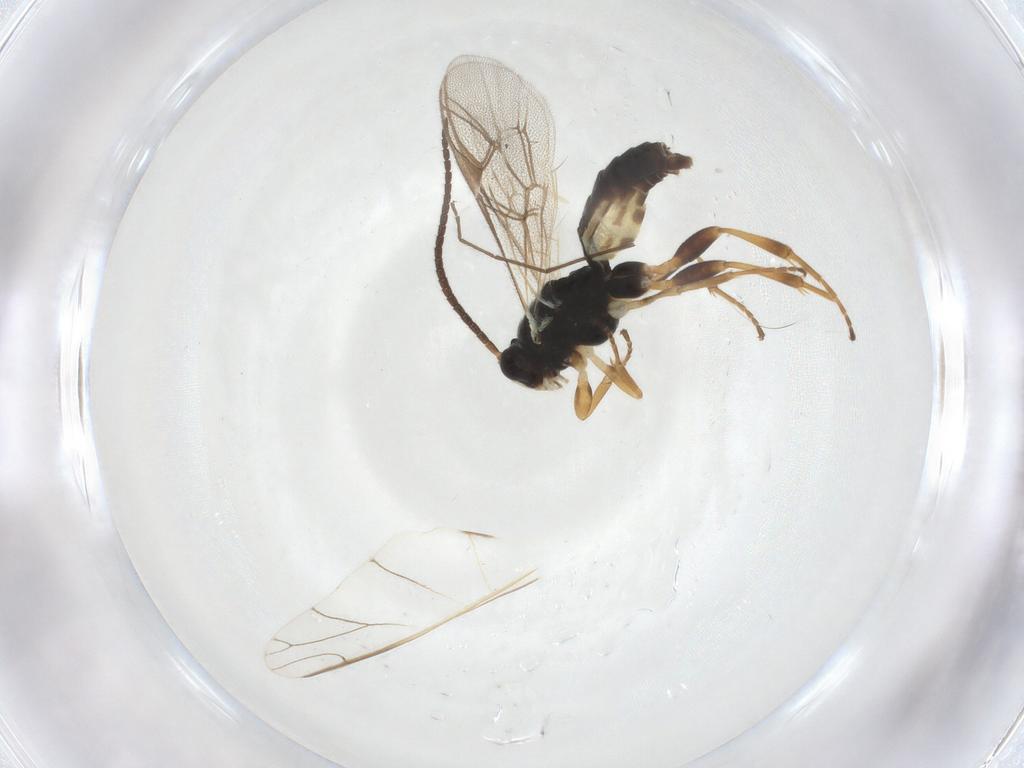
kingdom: Animalia
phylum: Arthropoda
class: Insecta
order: Hymenoptera
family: Ichneumonidae
